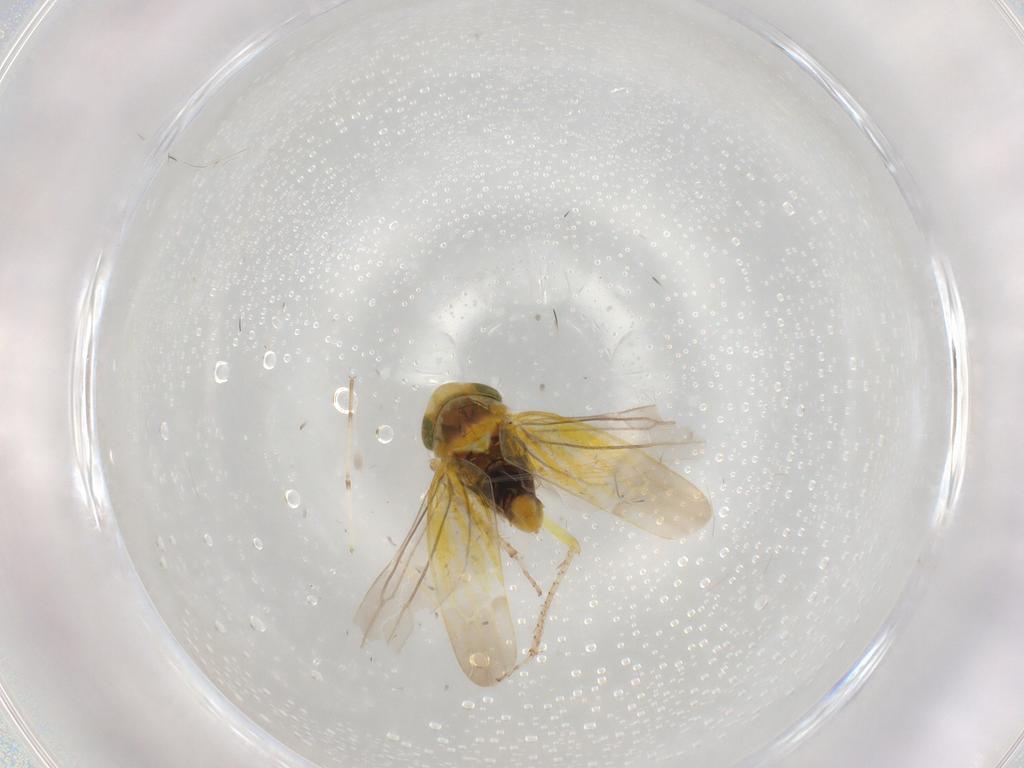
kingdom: Animalia
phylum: Arthropoda
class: Insecta
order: Hemiptera
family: Cicadellidae
